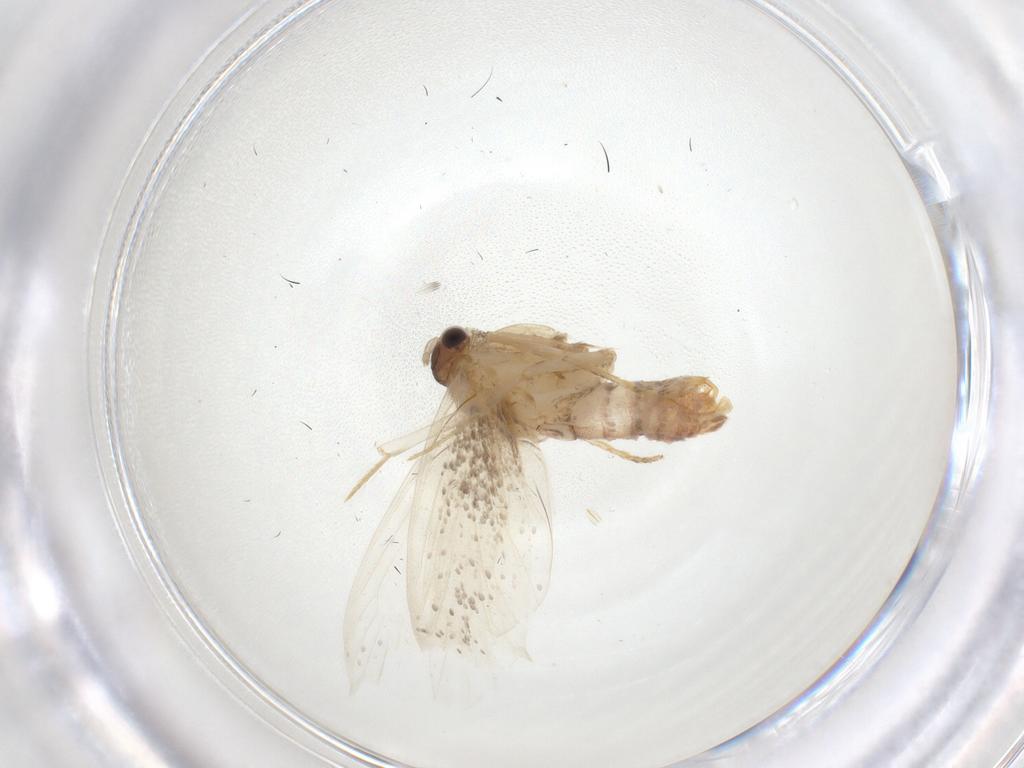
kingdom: Animalia
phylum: Arthropoda
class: Insecta
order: Lepidoptera
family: Dryadaulidae
